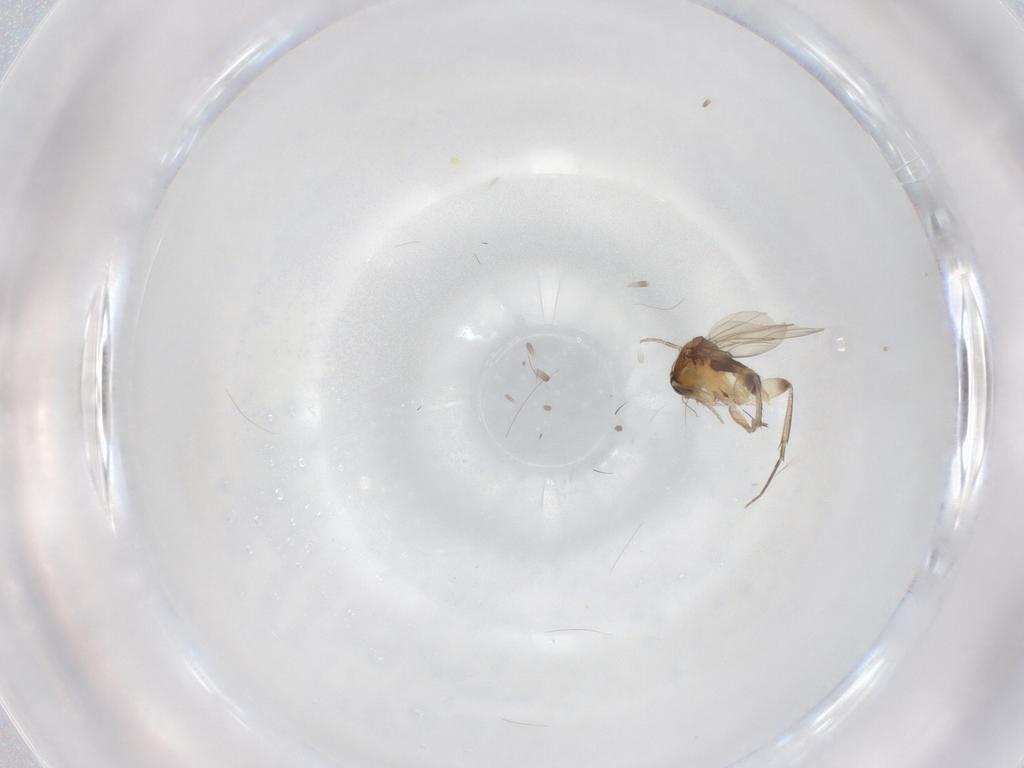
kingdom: Animalia
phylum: Arthropoda
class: Insecta
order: Diptera
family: Phoridae
